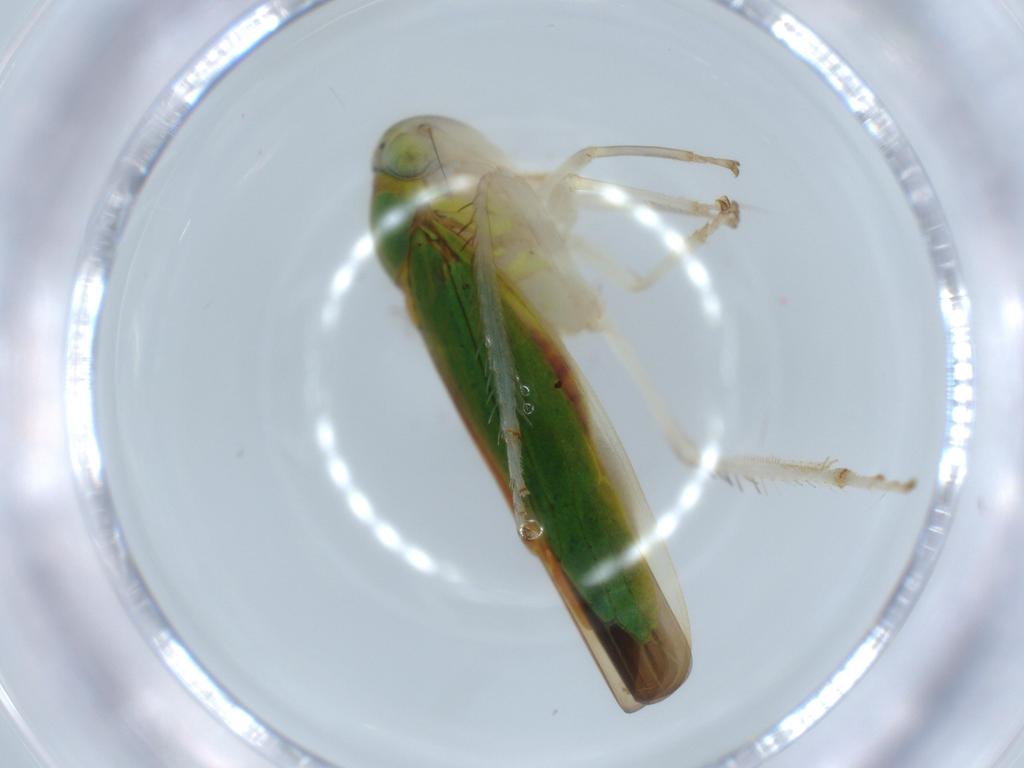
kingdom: Animalia
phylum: Arthropoda
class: Insecta
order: Hemiptera
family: Cicadellidae
